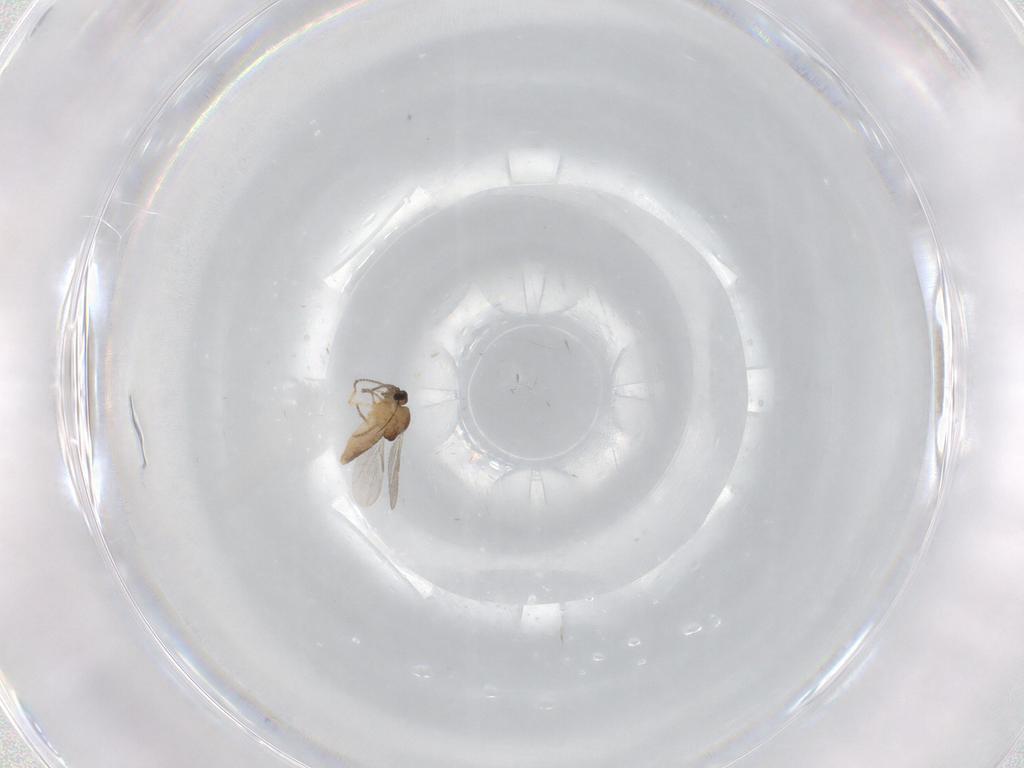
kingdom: Animalia
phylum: Arthropoda
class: Insecta
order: Diptera
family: Ceratopogonidae
